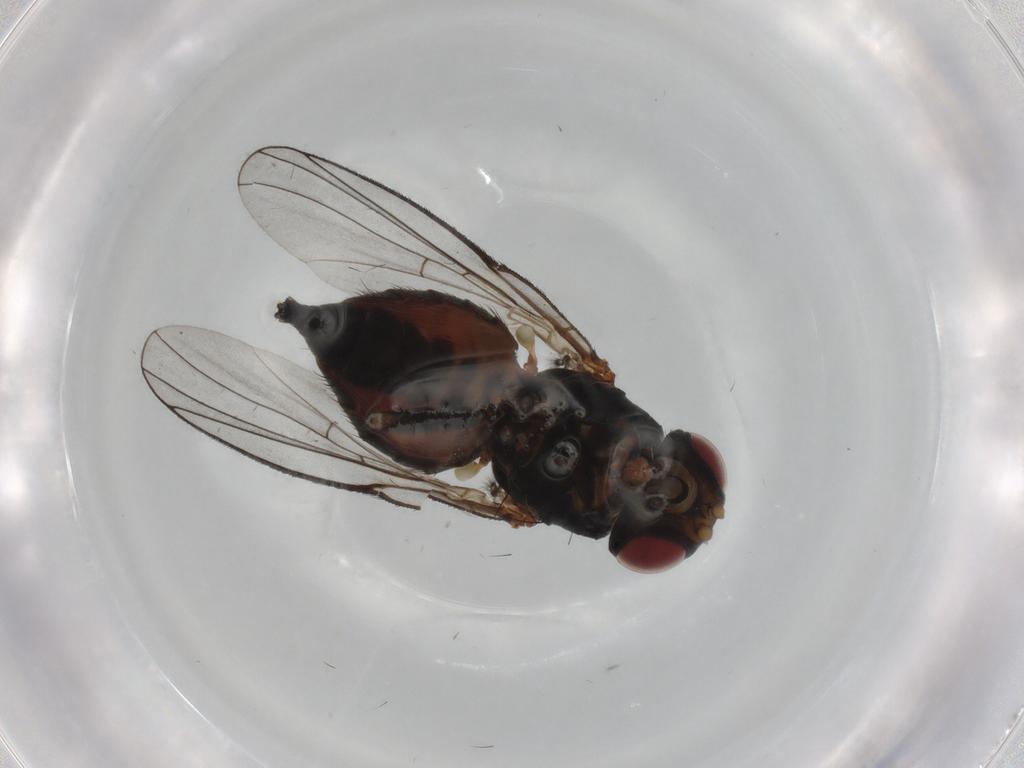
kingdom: Animalia
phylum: Arthropoda
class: Insecta
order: Diptera
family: Agromyzidae
